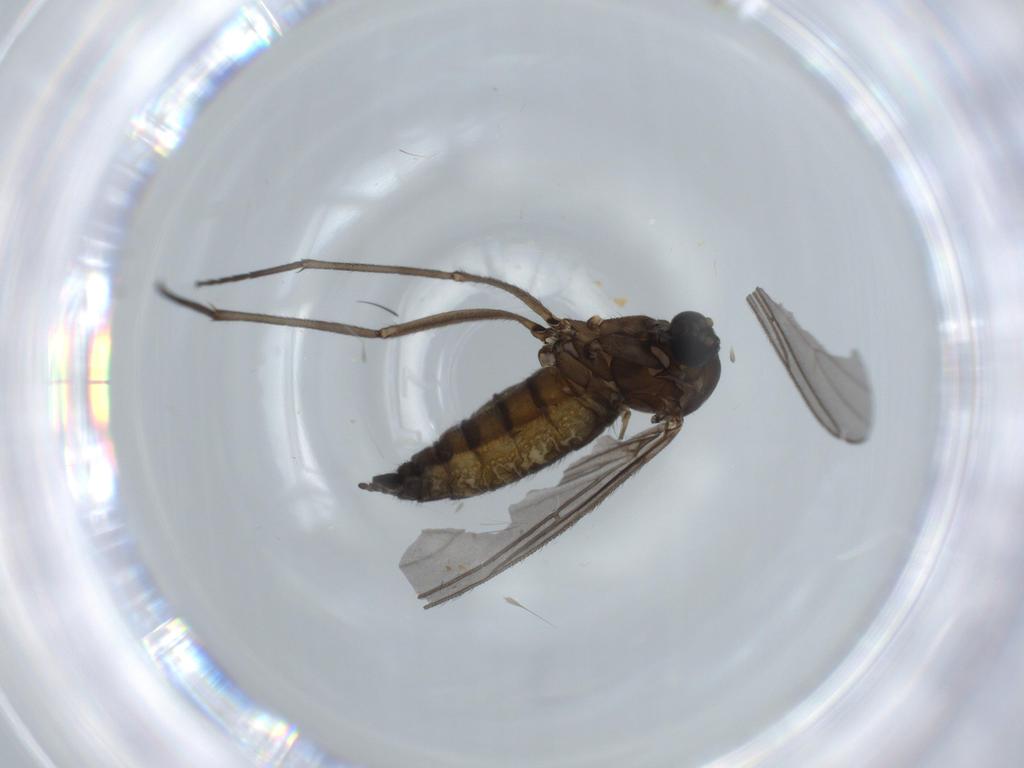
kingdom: Animalia
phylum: Arthropoda
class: Insecta
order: Diptera
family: Sciaridae
